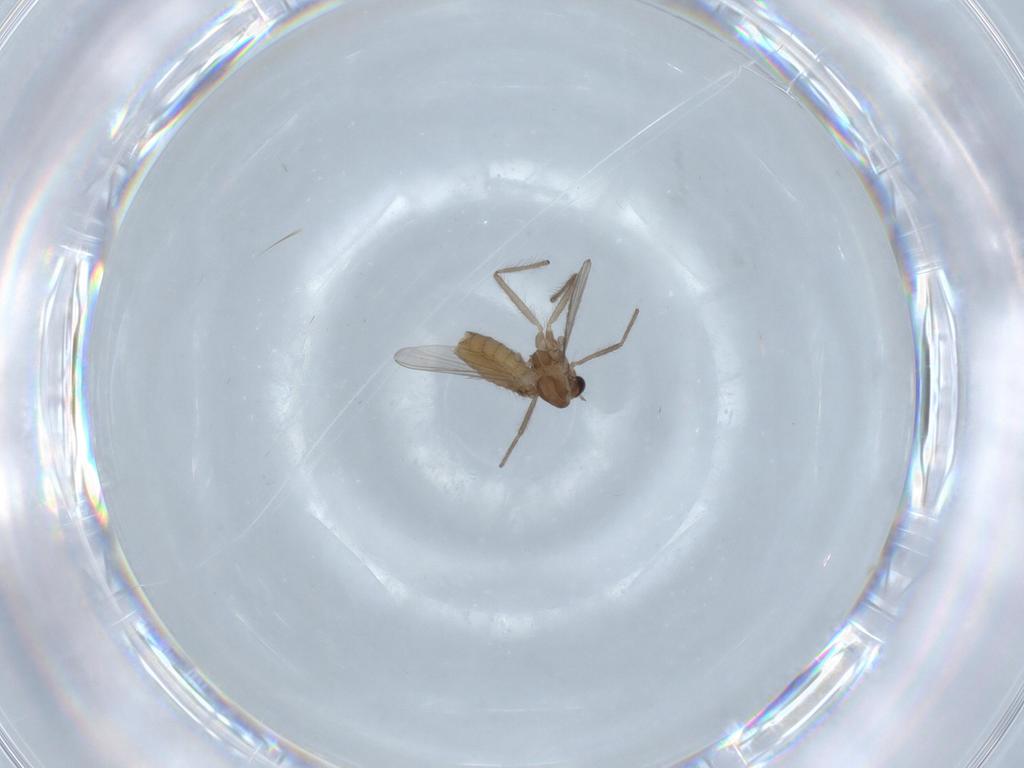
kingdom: Animalia
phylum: Arthropoda
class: Insecta
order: Diptera
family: Chironomidae
